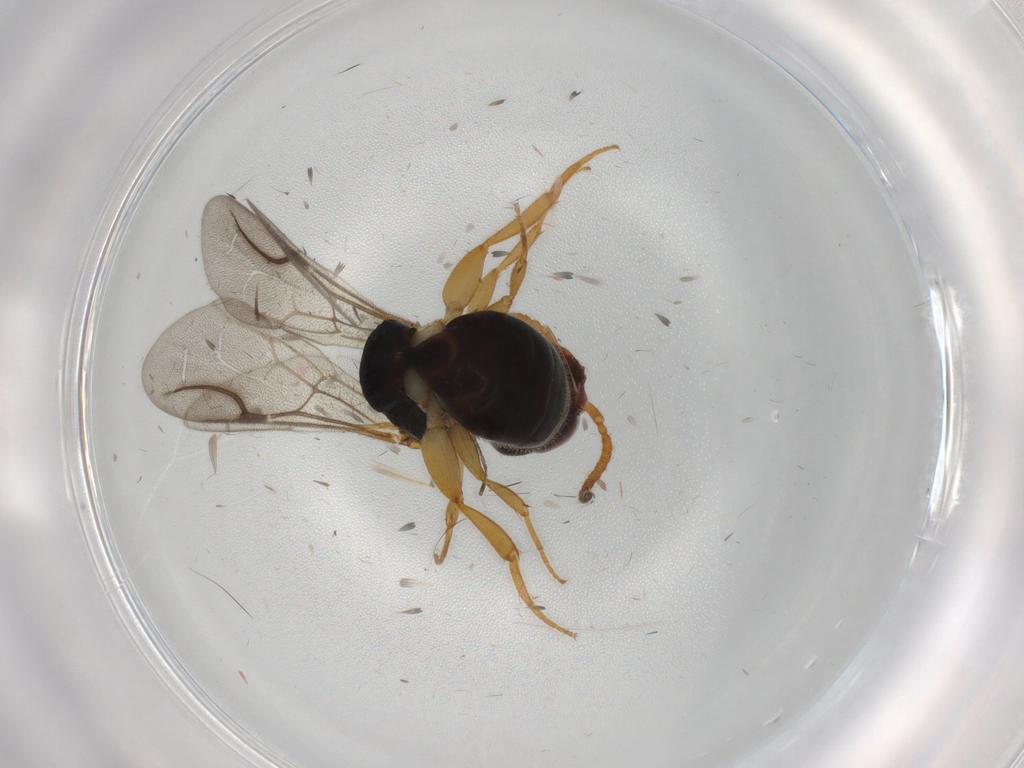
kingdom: Animalia
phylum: Arthropoda
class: Insecta
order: Hymenoptera
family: Bethylidae
